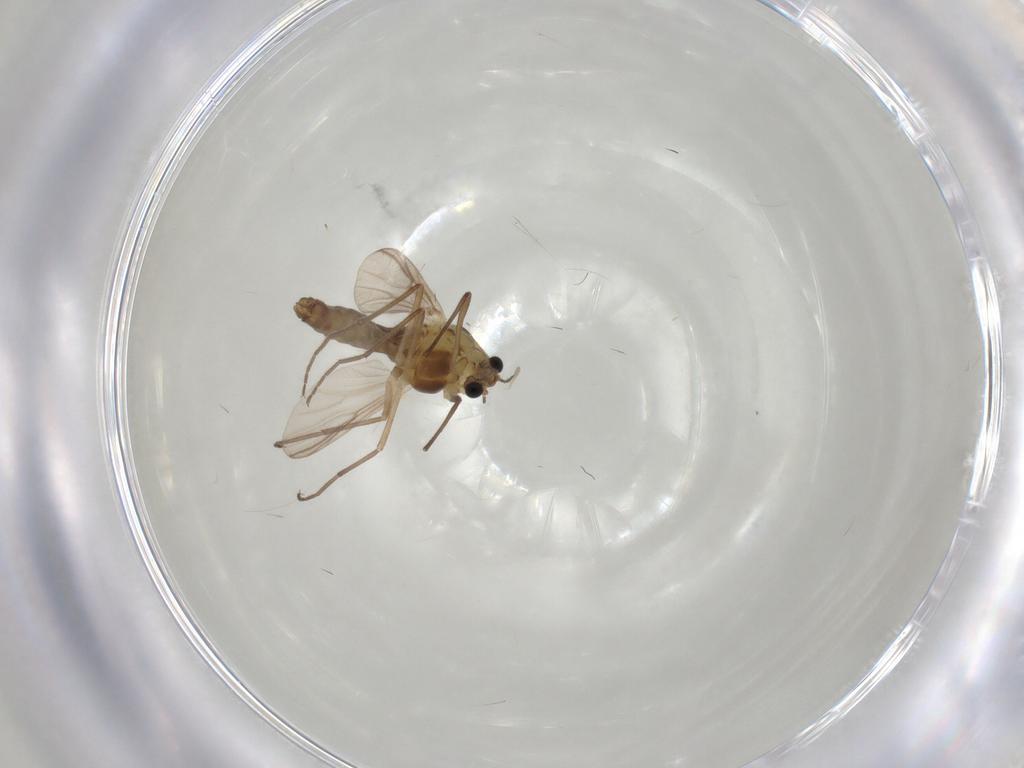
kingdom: Animalia
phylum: Arthropoda
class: Insecta
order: Diptera
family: Chironomidae
